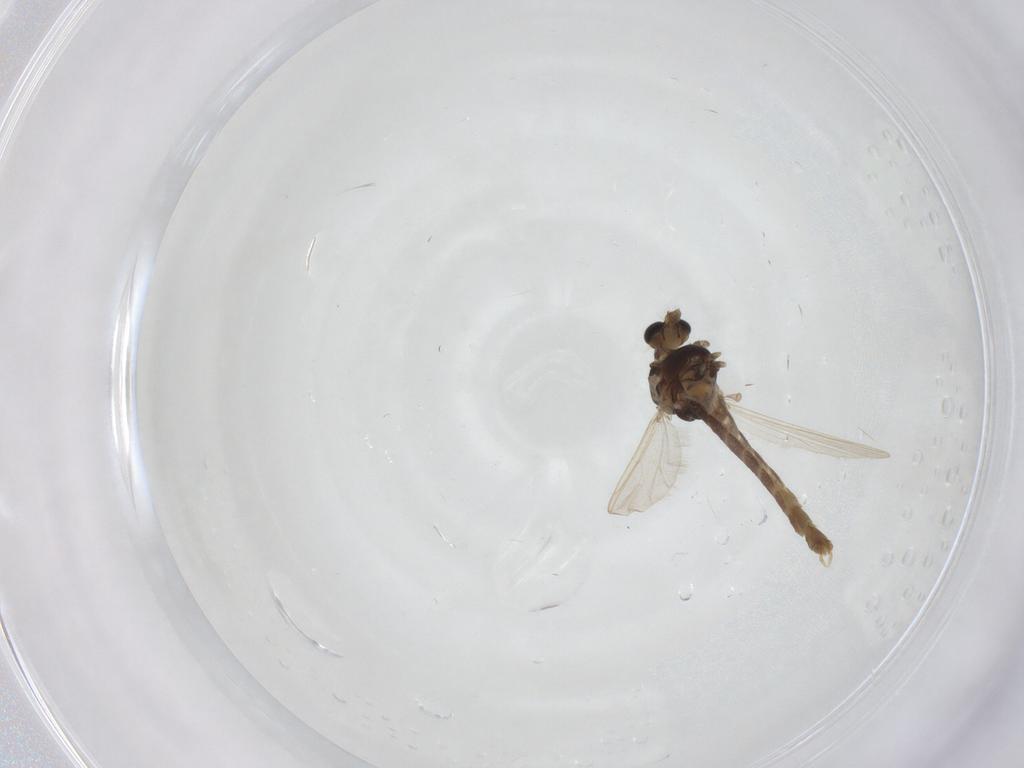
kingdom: Animalia
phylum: Arthropoda
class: Insecta
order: Diptera
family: Chironomidae
